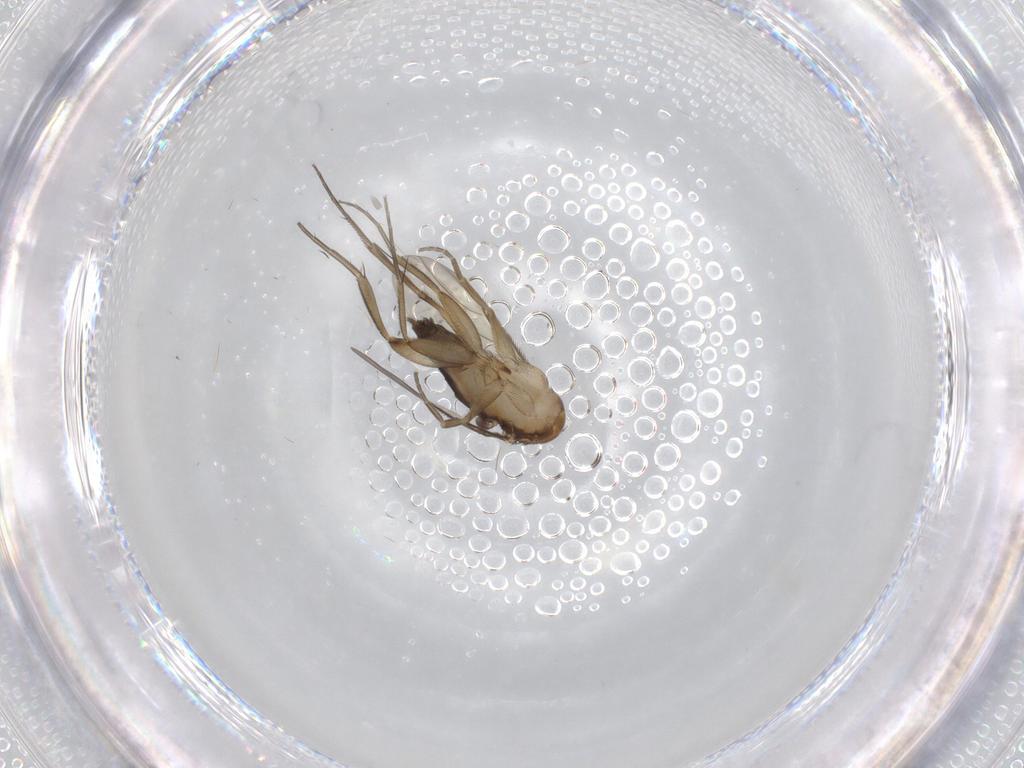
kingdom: Animalia
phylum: Arthropoda
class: Insecta
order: Diptera
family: Phoridae
